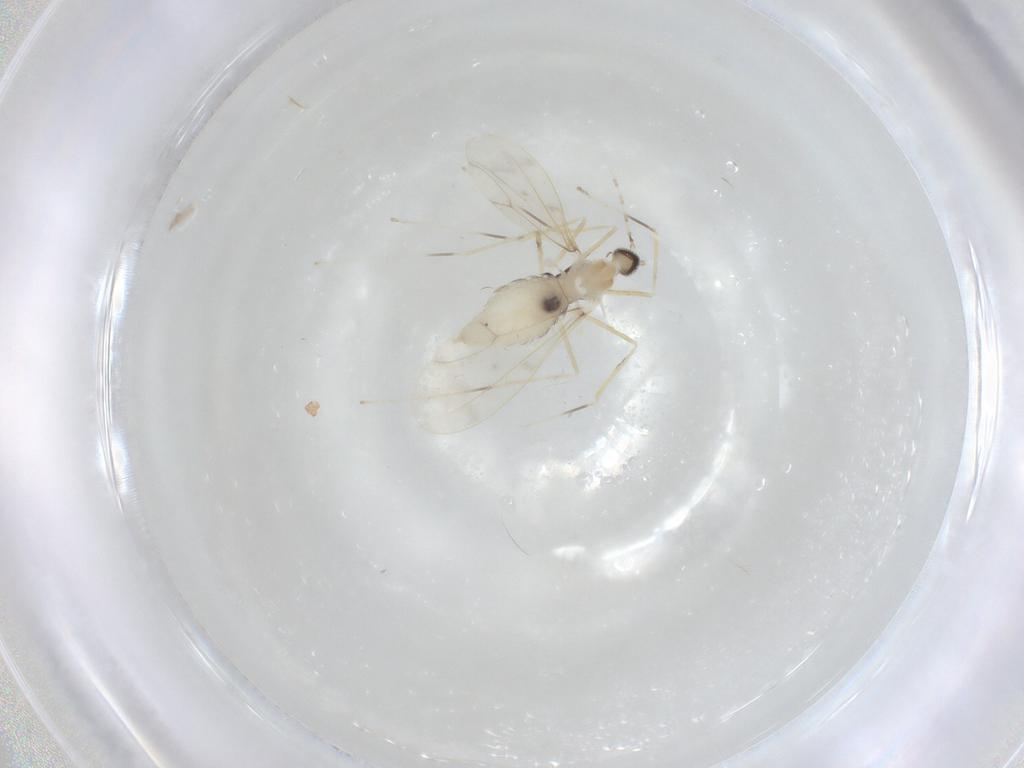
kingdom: Animalia
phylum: Arthropoda
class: Insecta
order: Diptera
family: Cecidomyiidae
